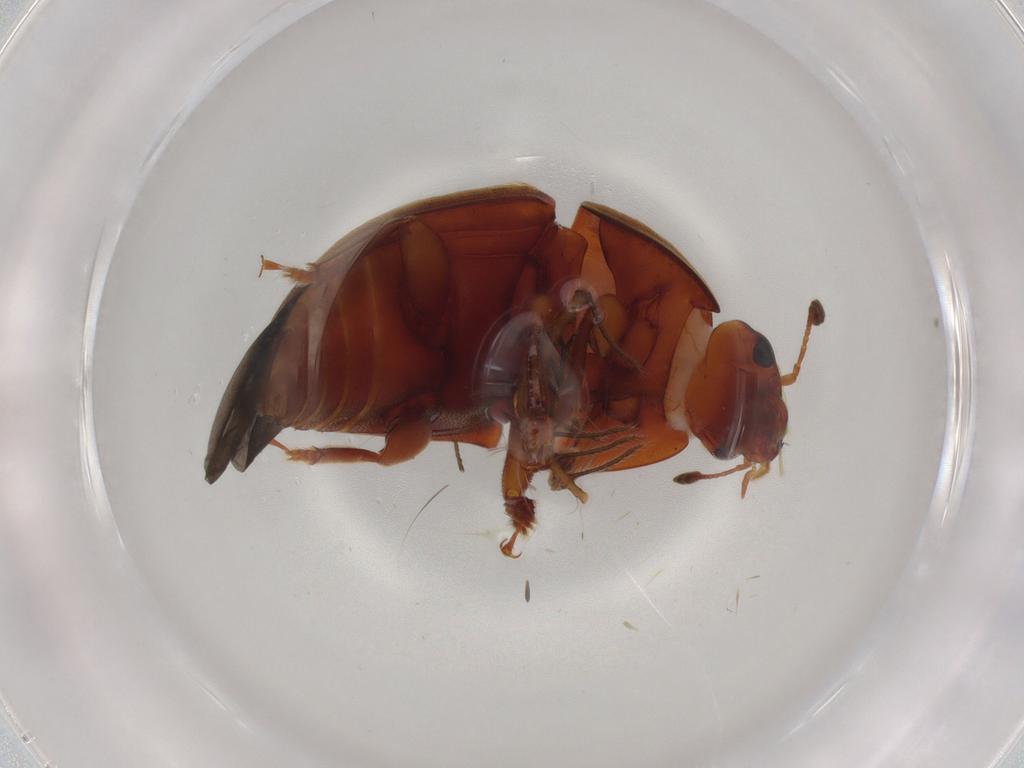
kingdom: Animalia
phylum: Arthropoda
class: Insecta
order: Coleoptera
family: Nitidulidae
